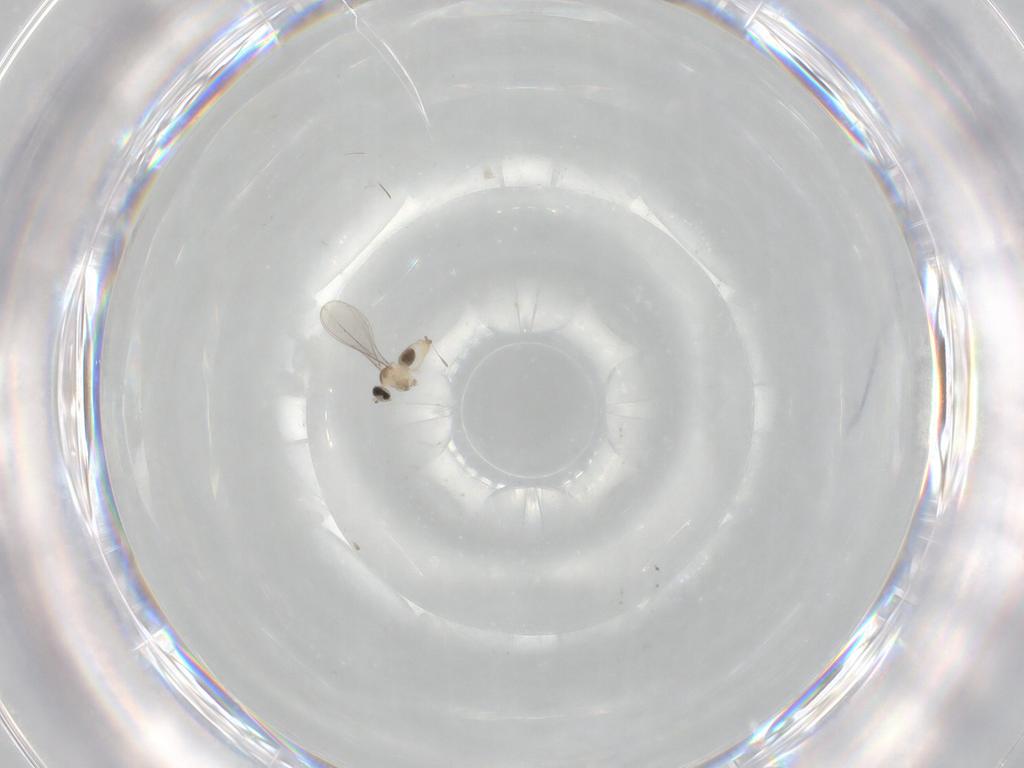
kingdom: Animalia
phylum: Arthropoda
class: Insecta
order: Diptera
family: Cecidomyiidae
